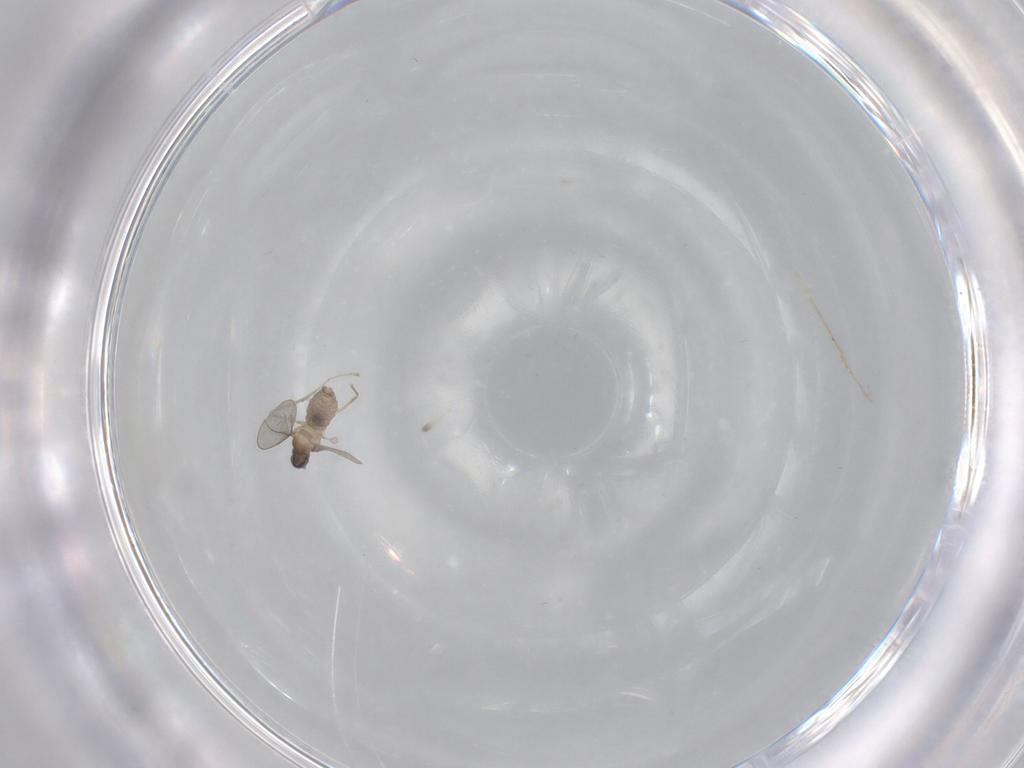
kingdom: Animalia
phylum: Arthropoda
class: Insecta
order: Diptera
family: Cecidomyiidae
